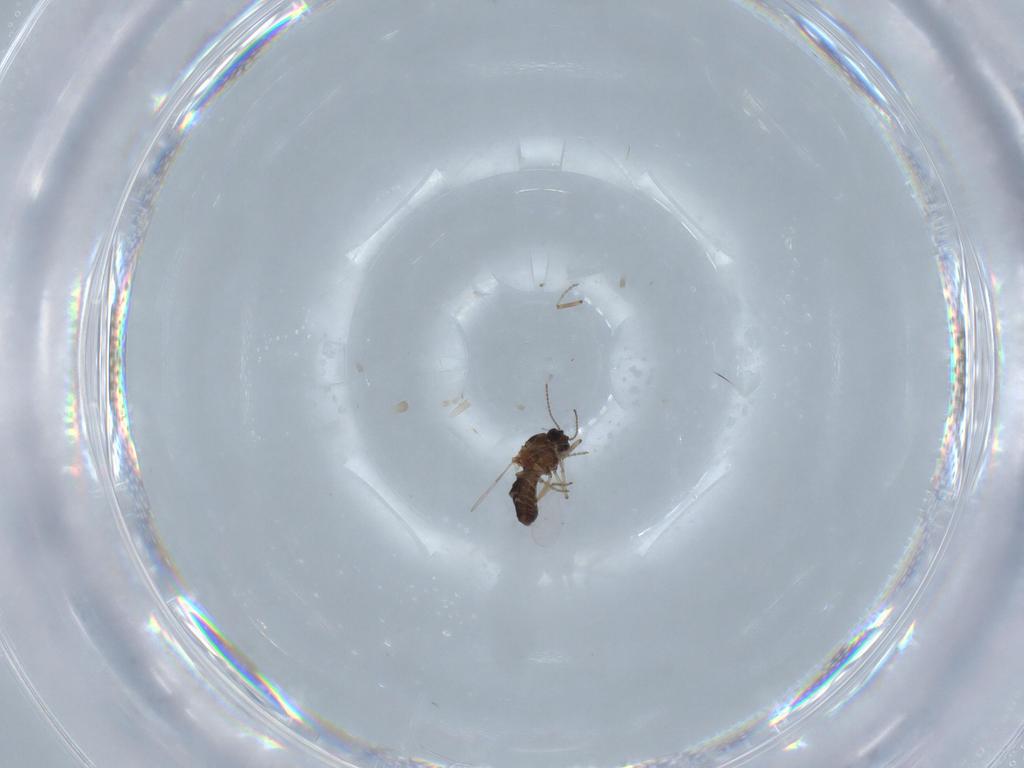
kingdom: Animalia
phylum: Arthropoda
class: Insecta
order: Diptera
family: Ceratopogonidae
